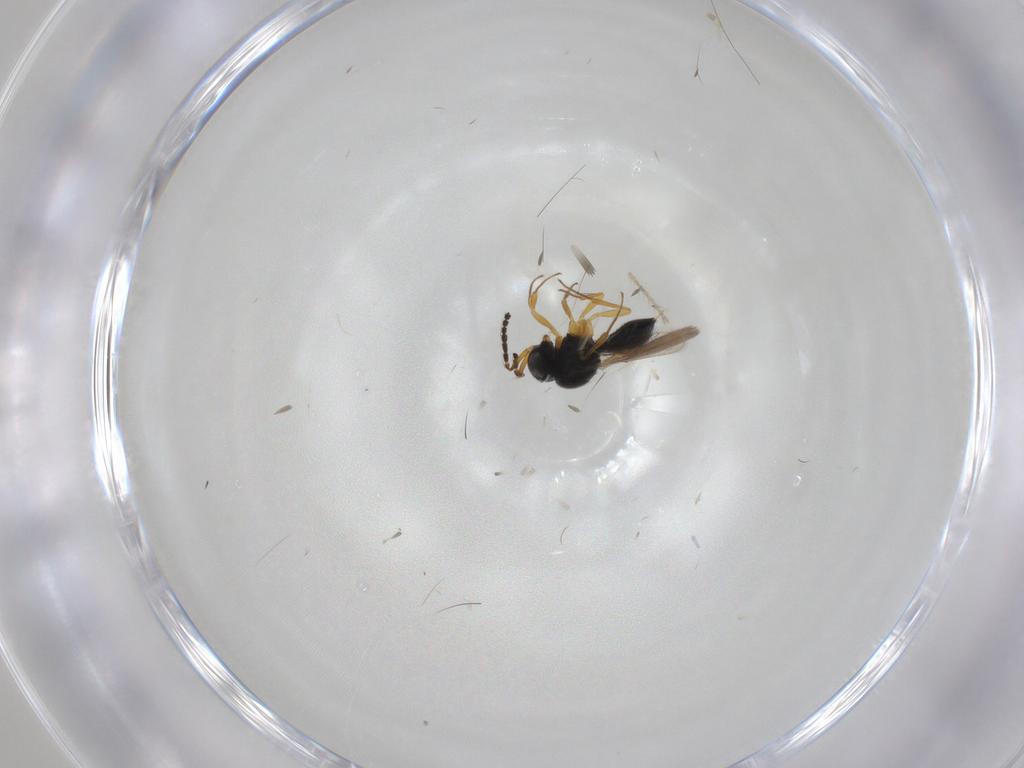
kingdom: Animalia
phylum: Arthropoda
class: Insecta
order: Hymenoptera
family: Scelionidae
